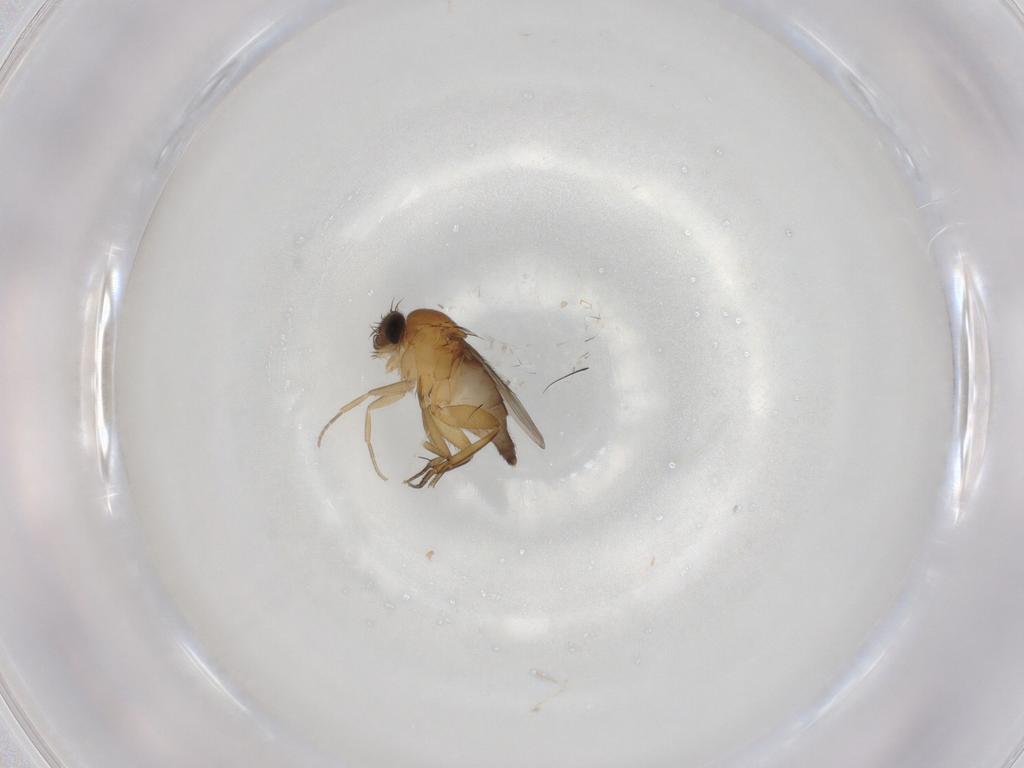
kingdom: Animalia
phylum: Arthropoda
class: Insecta
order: Diptera
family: Phoridae
